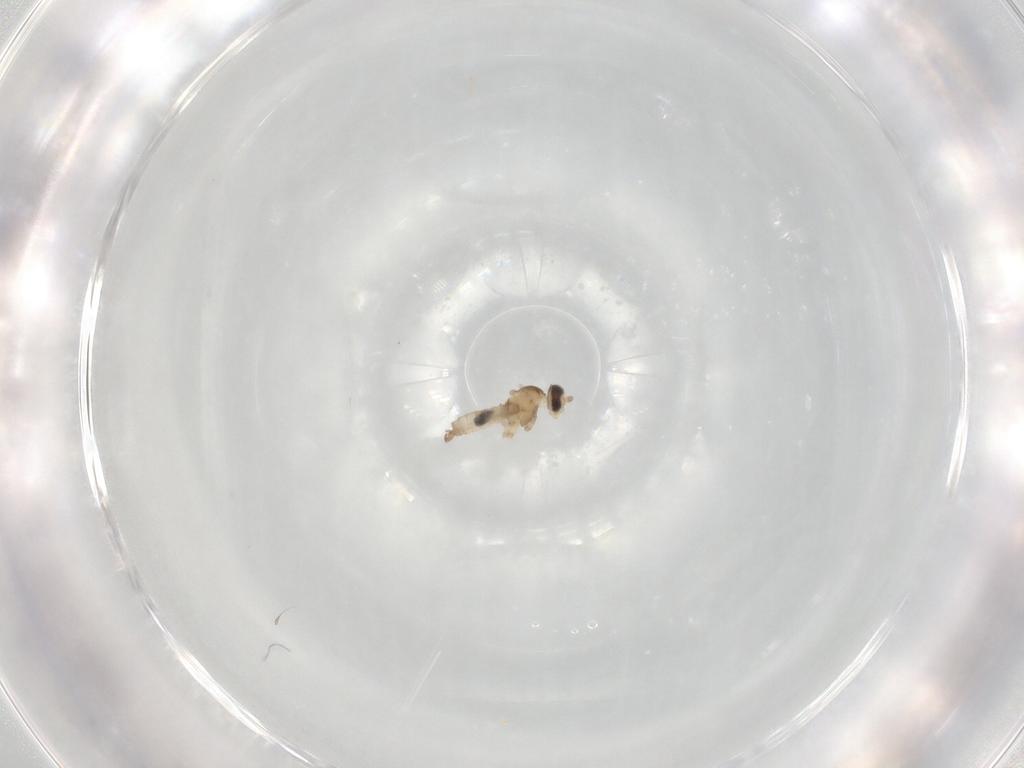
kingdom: Animalia
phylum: Arthropoda
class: Insecta
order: Diptera
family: Cecidomyiidae
